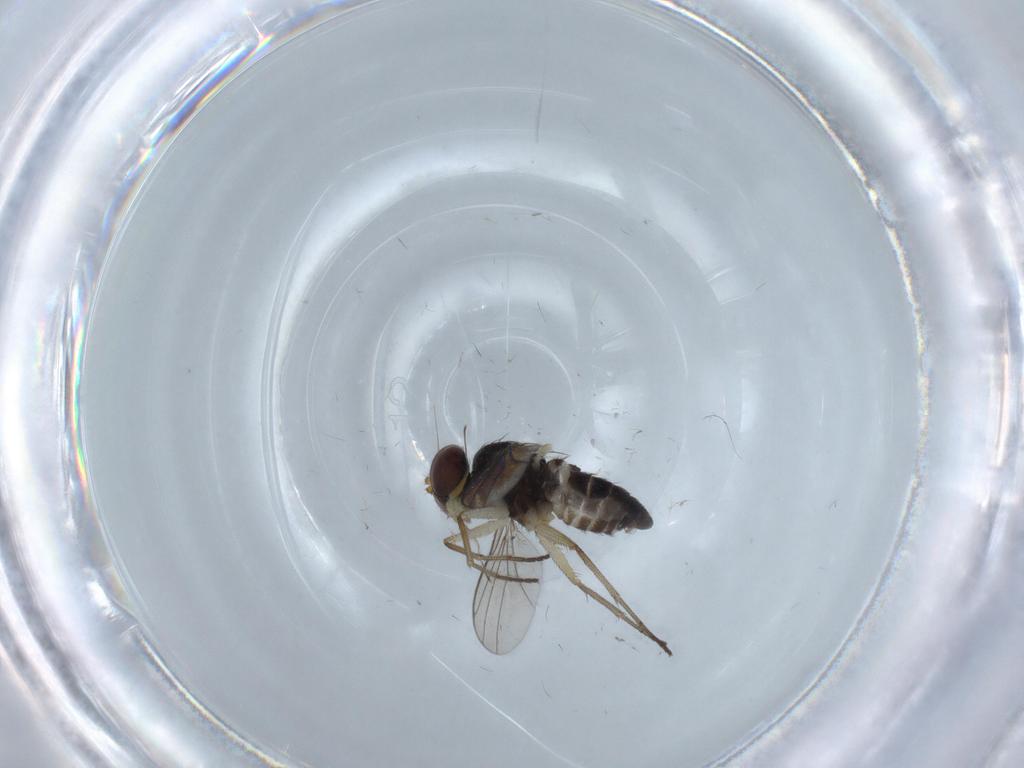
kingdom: Animalia
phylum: Arthropoda
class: Insecta
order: Diptera
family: Dolichopodidae
